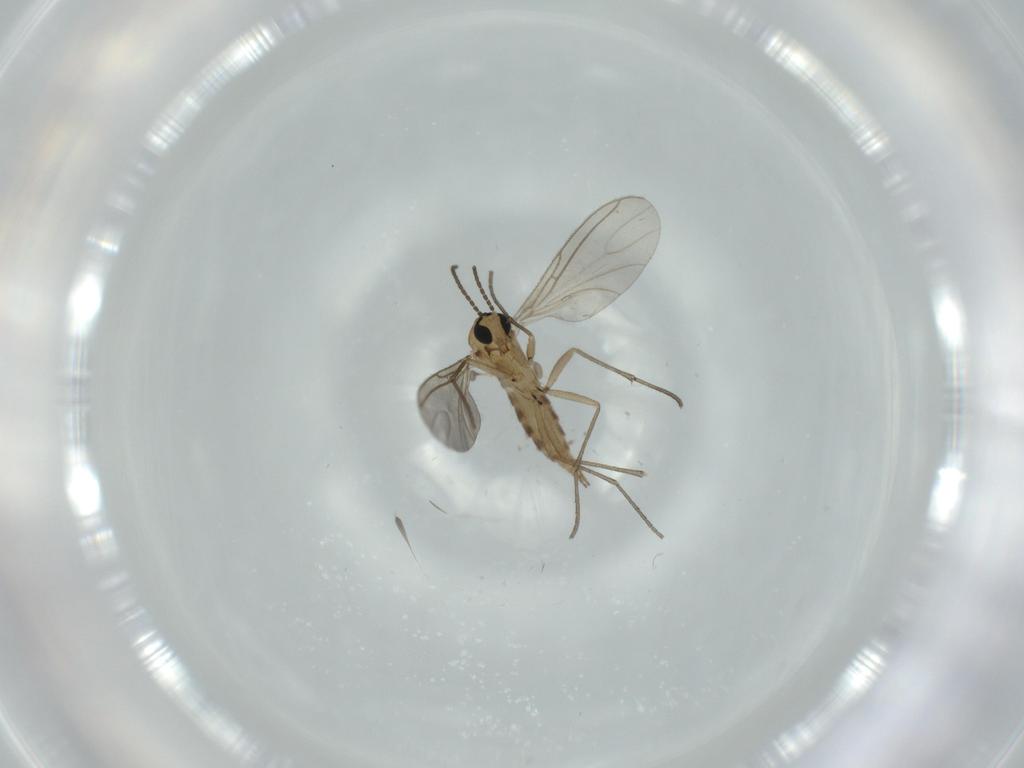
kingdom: Animalia
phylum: Arthropoda
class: Insecta
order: Diptera
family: Sciaridae
